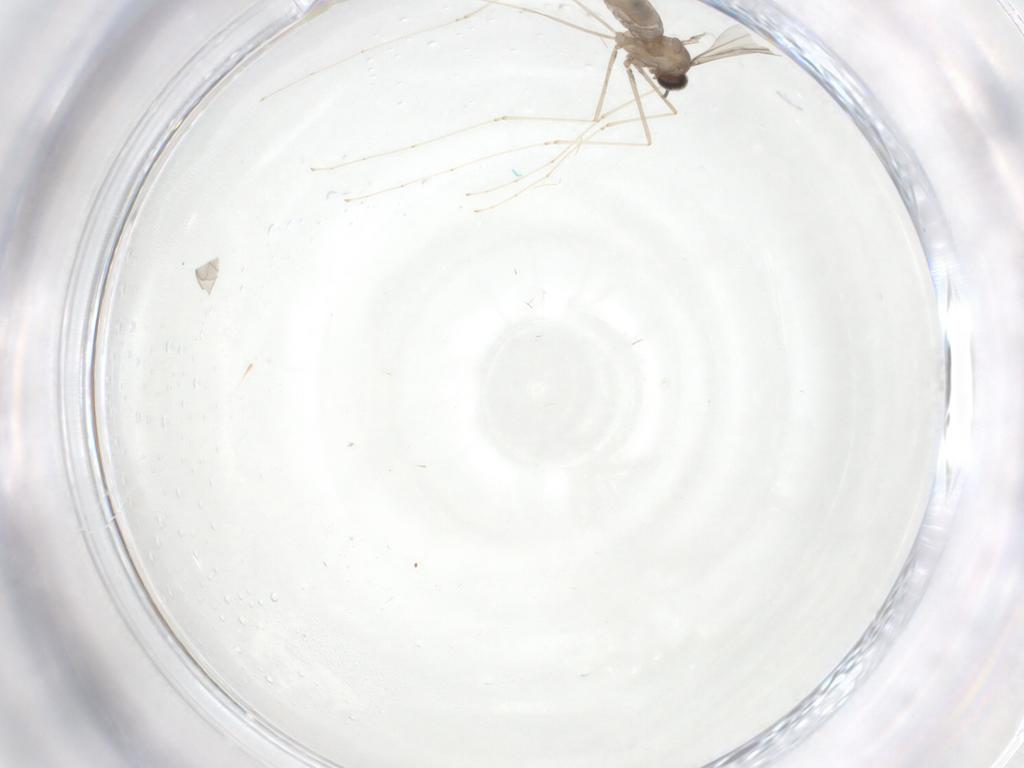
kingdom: Animalia
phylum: Arthropoda
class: Insecta
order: Diptera
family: Cecidomyiidae
